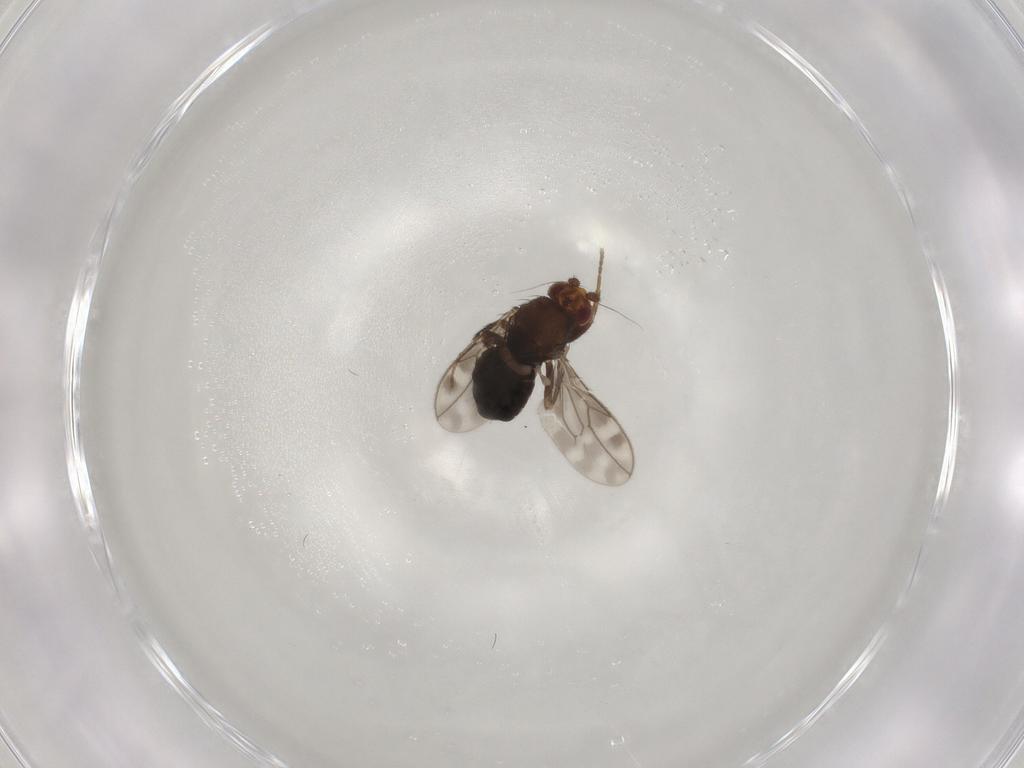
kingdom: Animalia
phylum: Arthropoda
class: Insecta
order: Diptera
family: Sphaeroceridae
